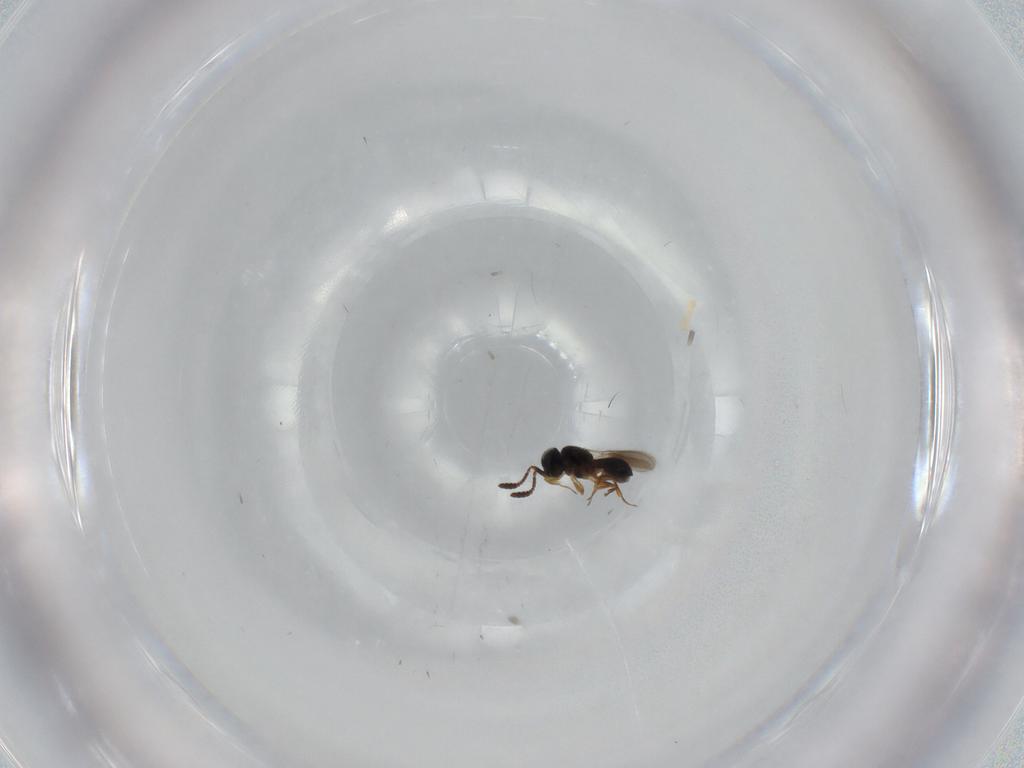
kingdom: Animalia
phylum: Arthropoda
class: Insecta
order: Hymenoptera
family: Scelionidae
